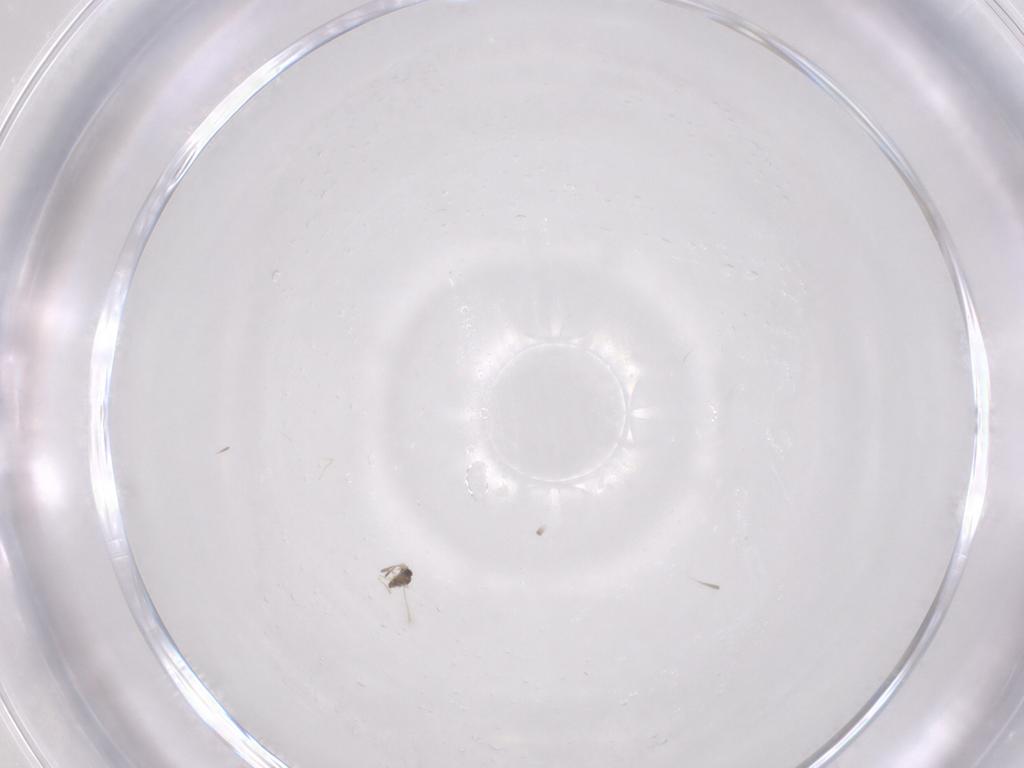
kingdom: Animalia
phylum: Arthropoda
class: Insecta
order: Hymenoptera
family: Mymaridae
